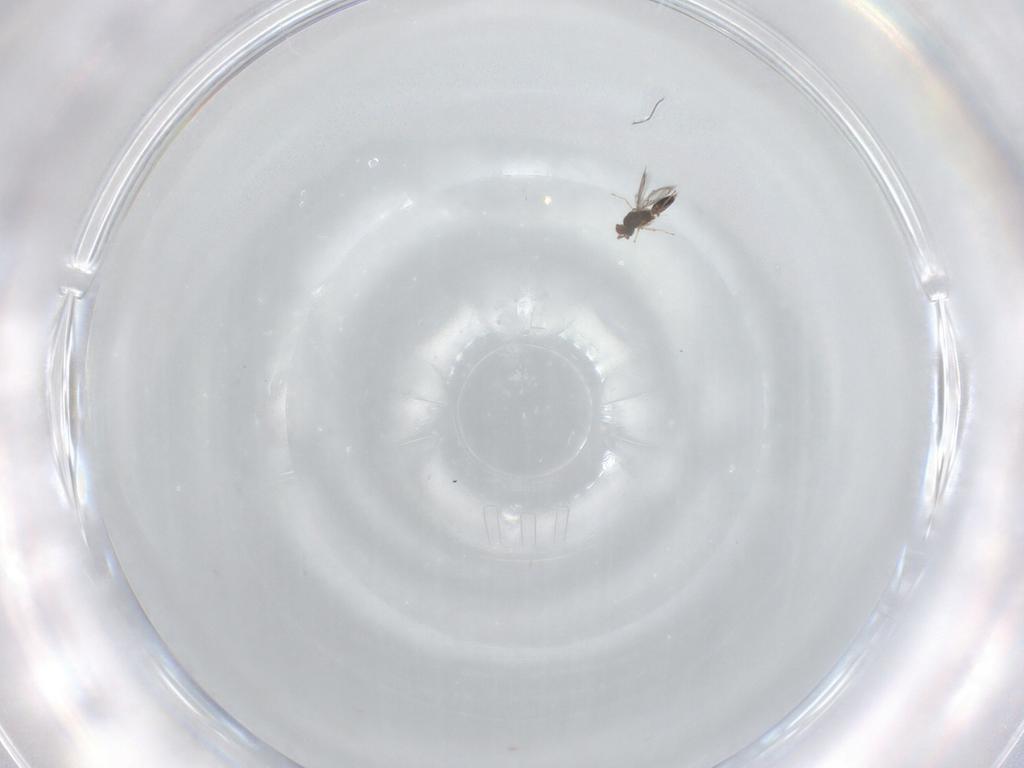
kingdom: Animalia
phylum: Arthropoda
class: Insecta
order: Hymenoptera
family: Eulophidae
